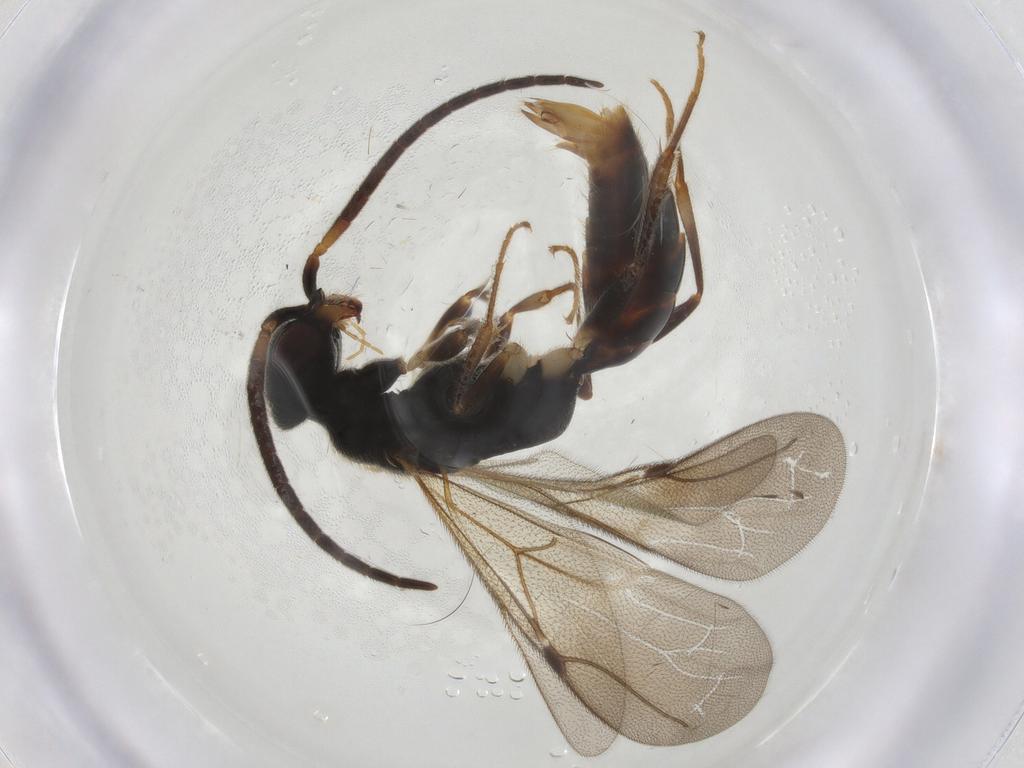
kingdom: Animalia
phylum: Arthropoda
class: Insecta
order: Hymenoptera
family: Bethylidae
